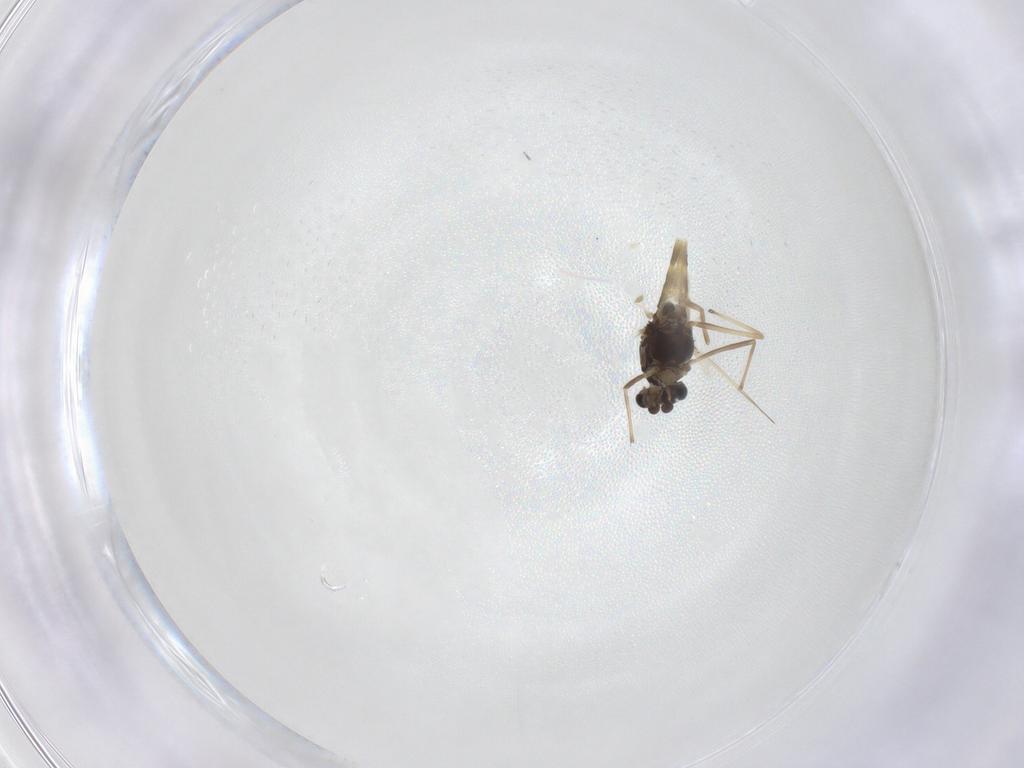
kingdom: Animalia
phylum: Arthropoda
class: Insecta
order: Diptera
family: Chironomidae
